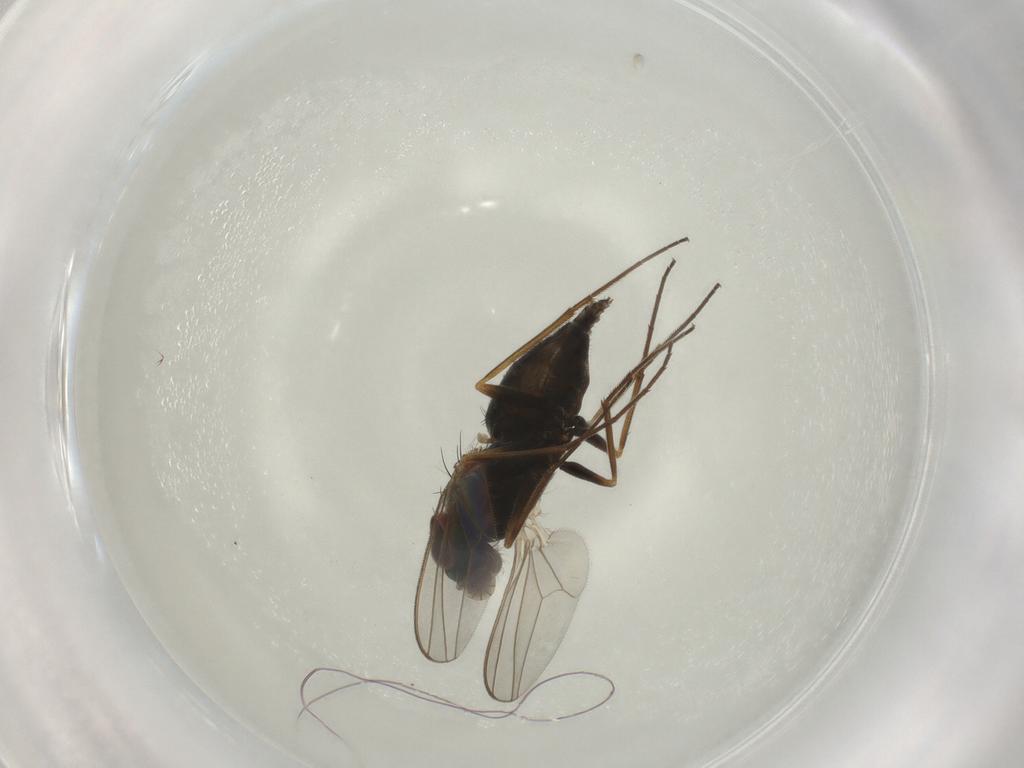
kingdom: Animalia
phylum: Arthropoda
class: Insecta
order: Diptera
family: Dolichopodidae
